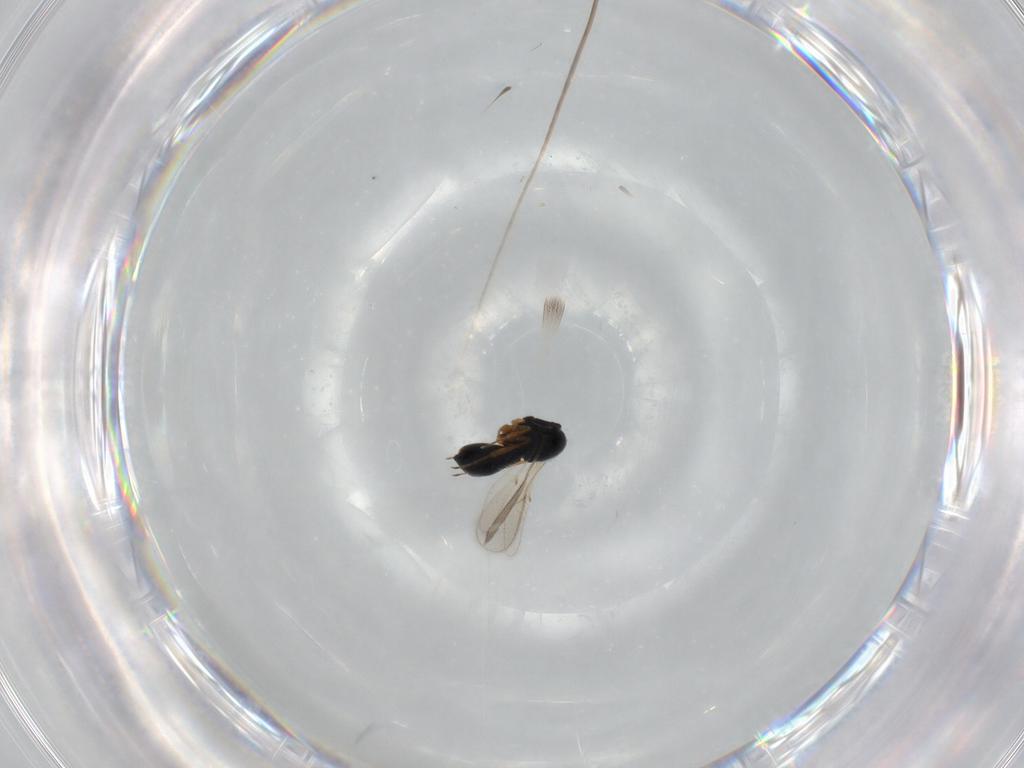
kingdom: Animalia
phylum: Arthropoda
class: Insecta
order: Hymenoptera
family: Scelionidae
